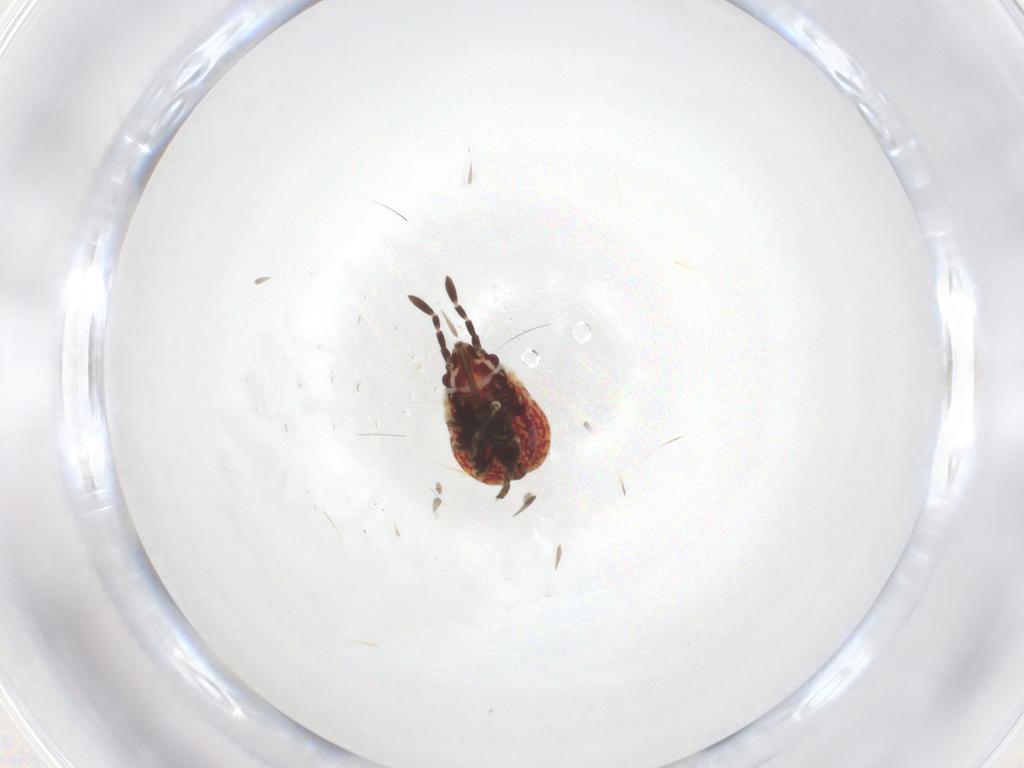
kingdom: Animalia
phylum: Arthropoda
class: Insecta
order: Hemiptera
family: Lygaeidae
